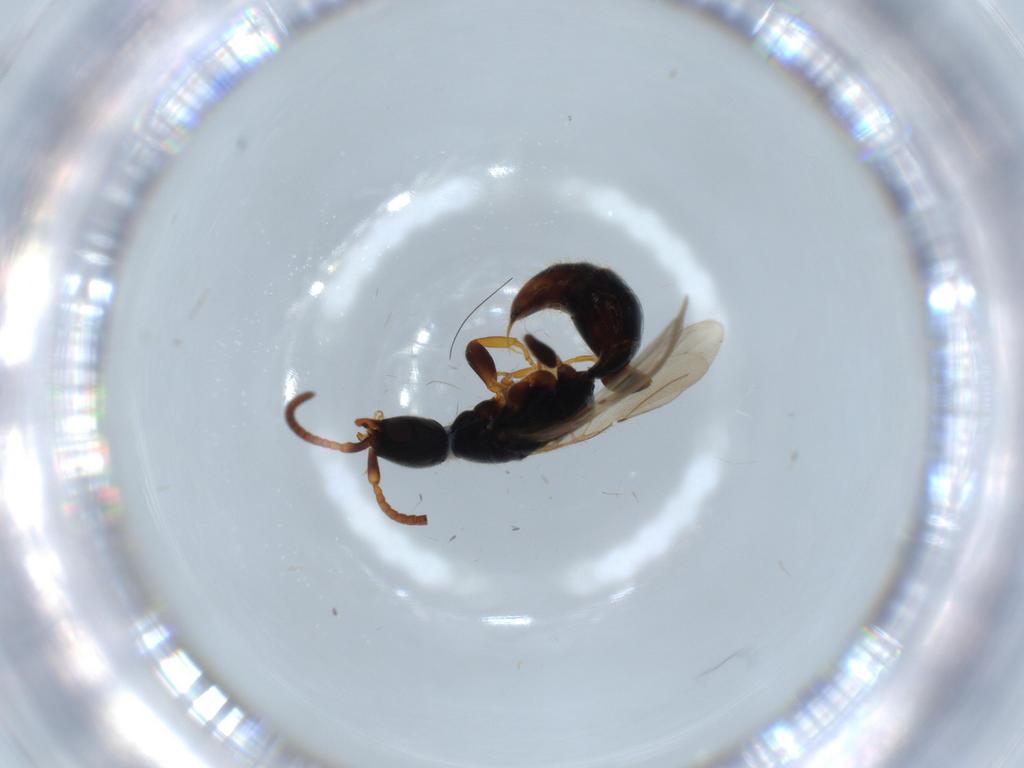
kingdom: Animalia
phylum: Arthropoda
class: Insecta
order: Hymenoptera
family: Bethylidae
